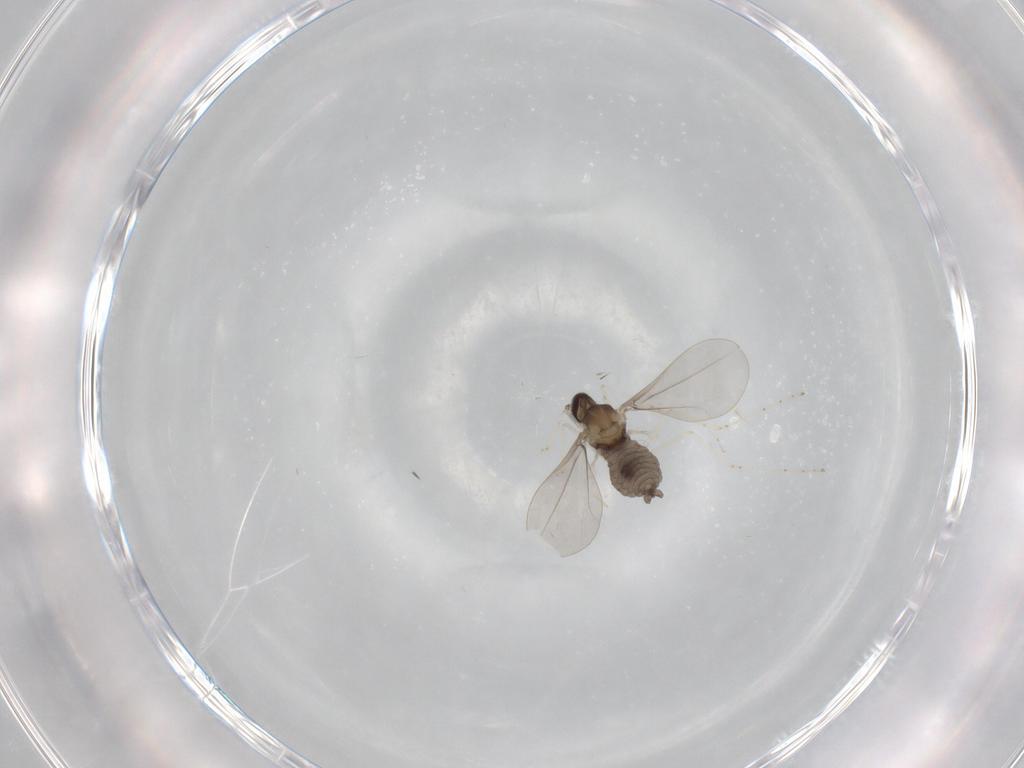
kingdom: Animalia
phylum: Arthropoda
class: Insecta
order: Diptera
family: Cecidomyiidae
